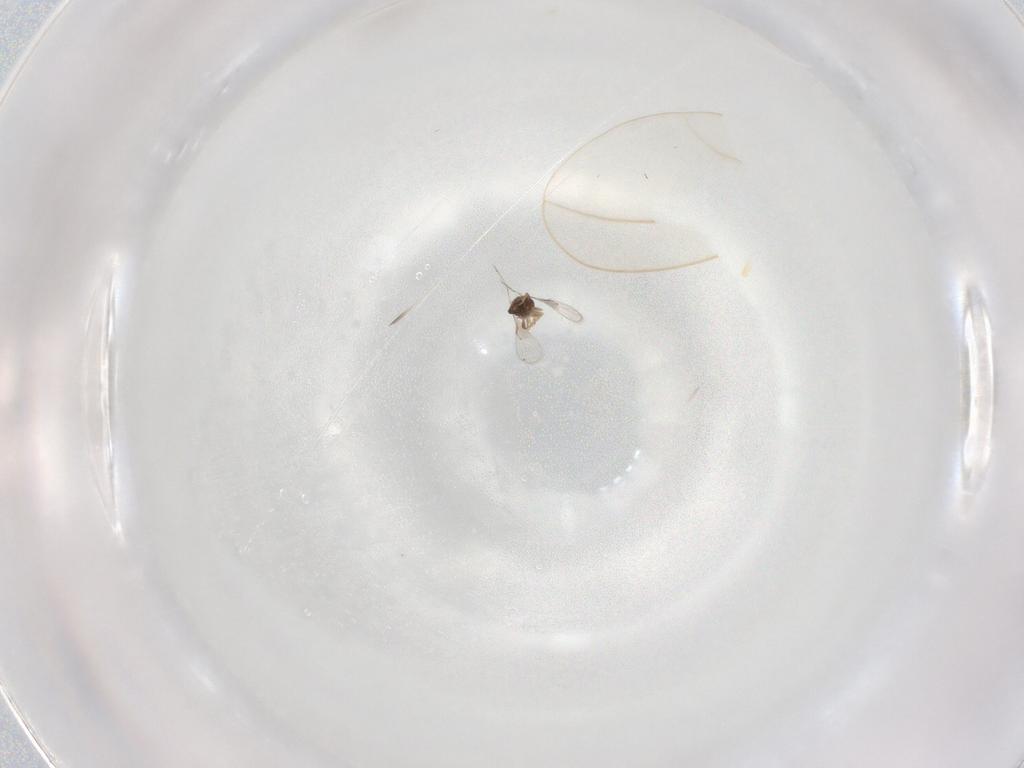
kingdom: Animalia
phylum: Arthropoda
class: Insecta
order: Hymenoptera
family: Trichogrammatidae
